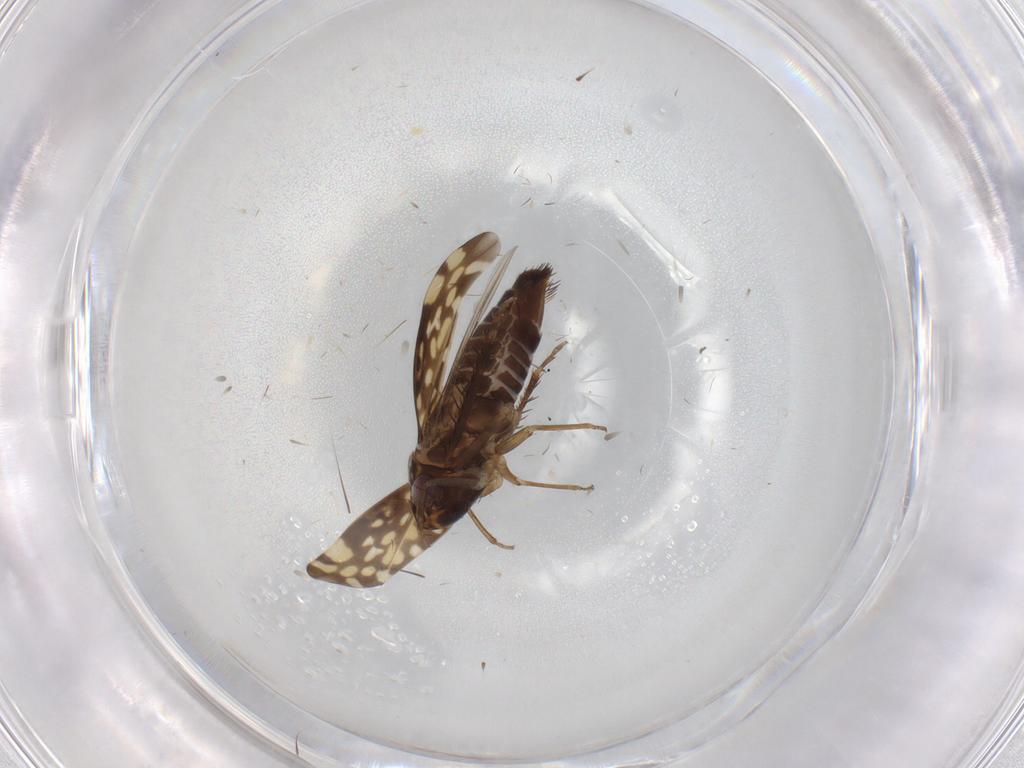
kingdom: Animalia
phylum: Arthropoda
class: Insecta
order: Hemiptera
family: Cicadellidae
